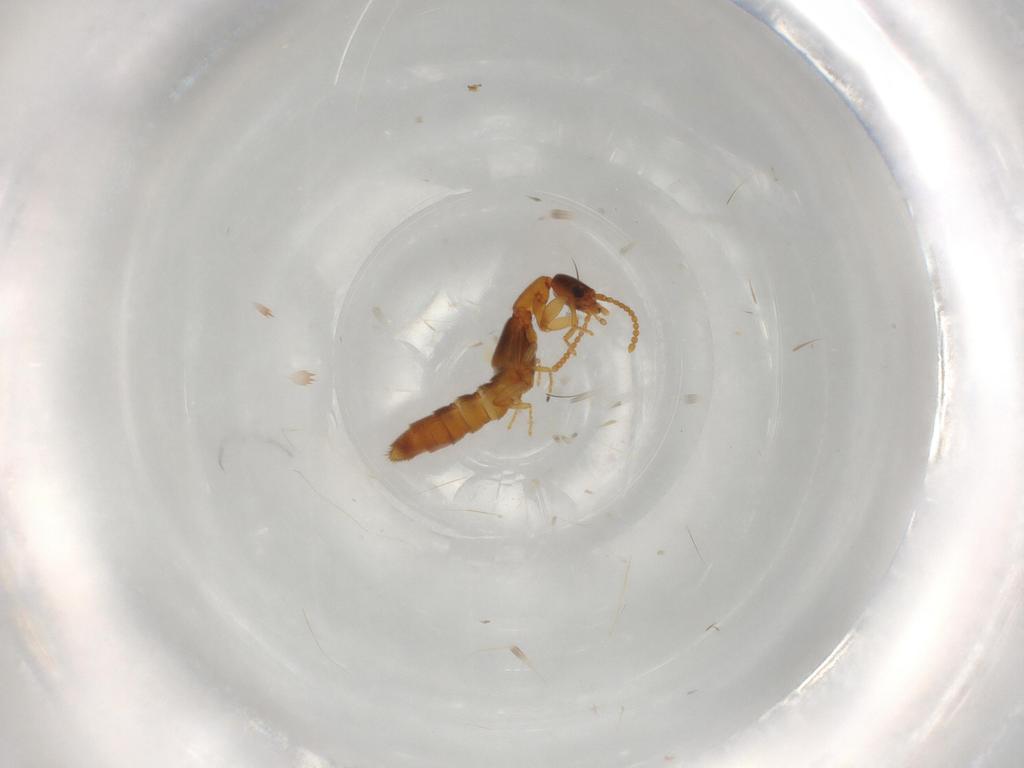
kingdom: Animalia
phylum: Arthropoda
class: Insecta
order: Coleoptera
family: Staphylinidae
